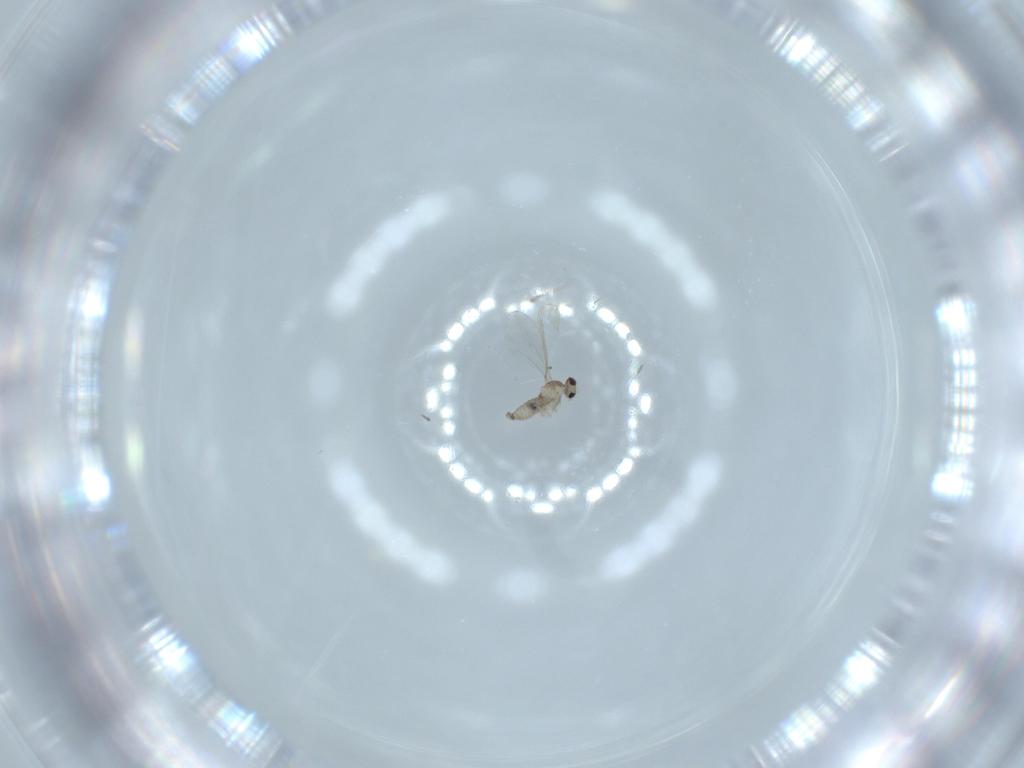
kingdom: Animalia
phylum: Arthropoda
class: Insecta
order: Diptera
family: Cecidomyiidae
